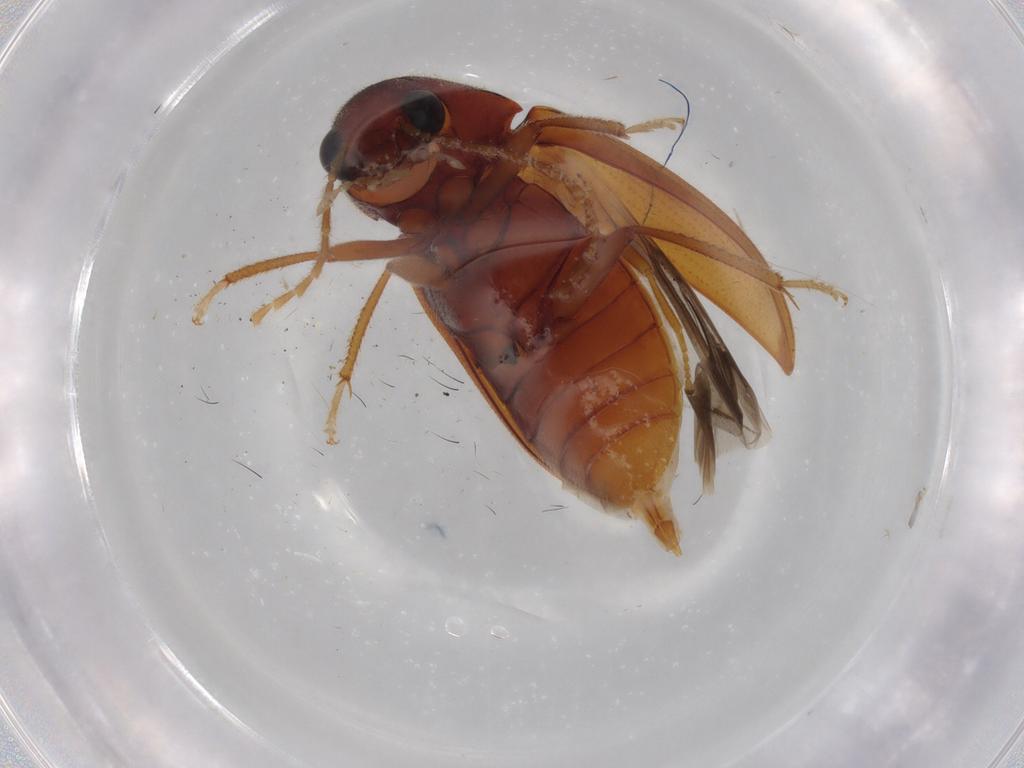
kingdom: Animalia
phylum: Arthropoda
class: Insecta
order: Coleoptera
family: Ptilodactylidae
